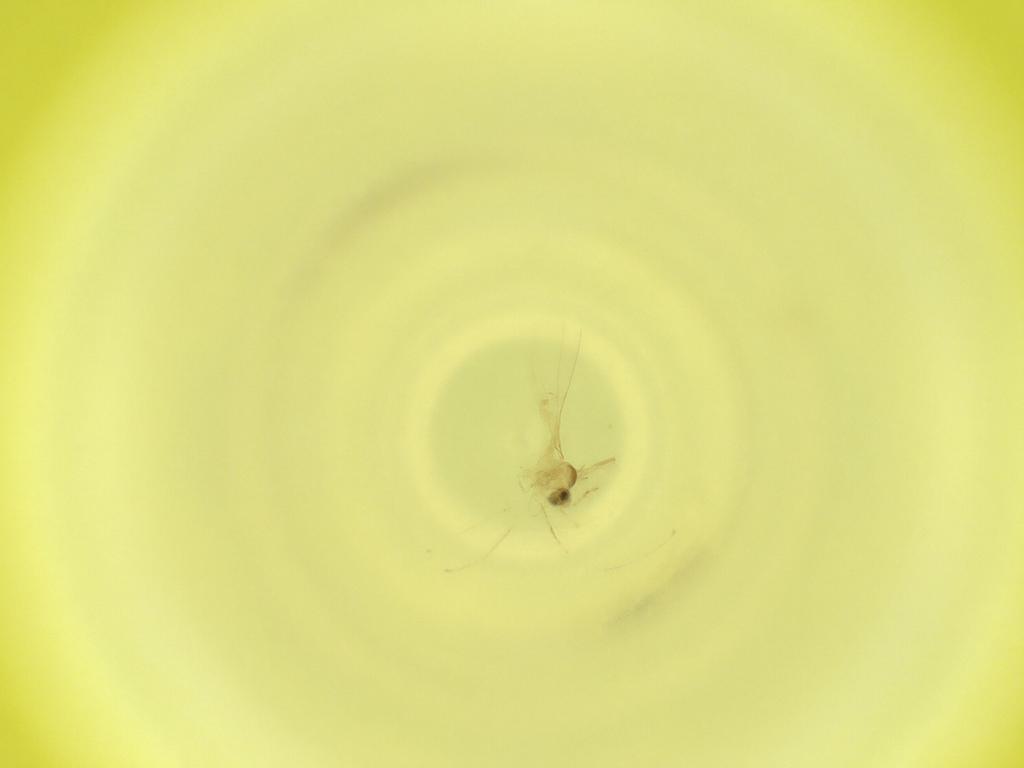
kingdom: Animalia
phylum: Arthropoda
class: Insecta
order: Diptera
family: Cecidomyiidae
